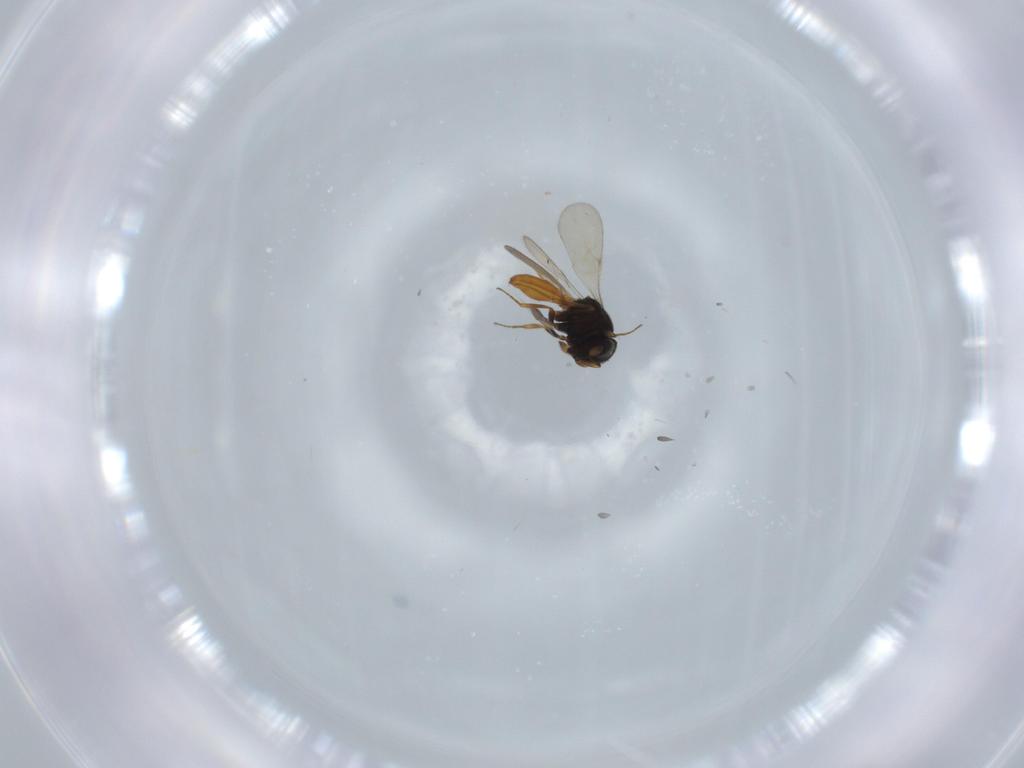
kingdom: Animalia
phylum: Arthropoda
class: Insecta
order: Hymenoptera
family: Scelionidae
